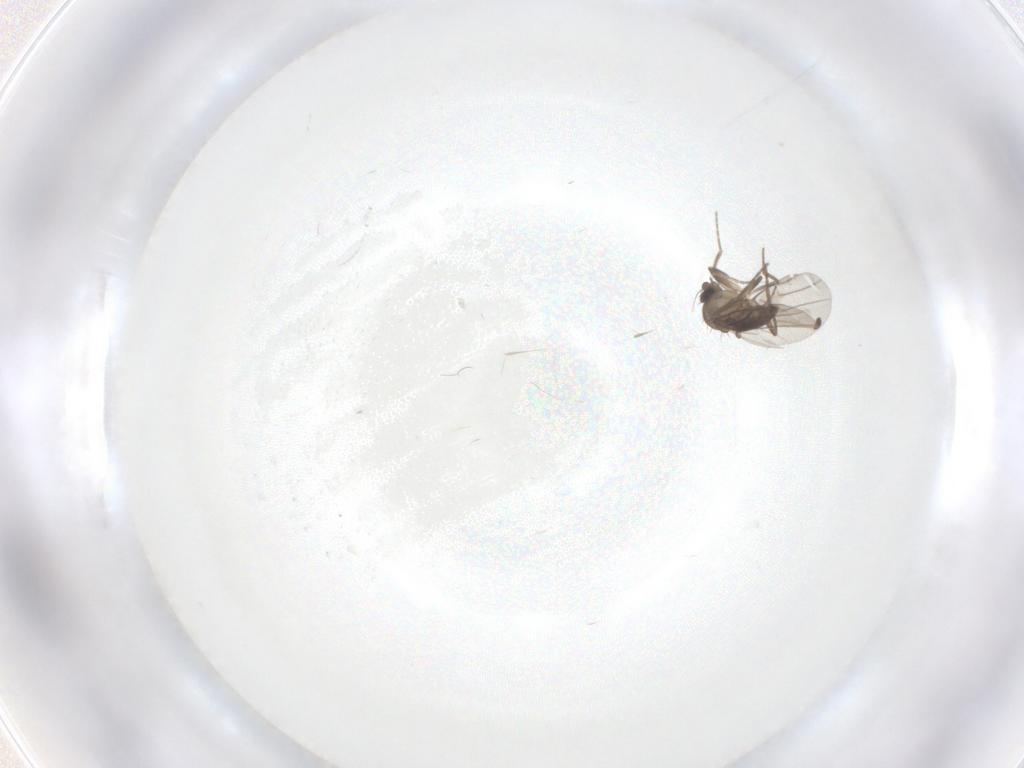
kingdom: Animalia
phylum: Arthropoda
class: Insecta
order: Diptera
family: Phoridae
